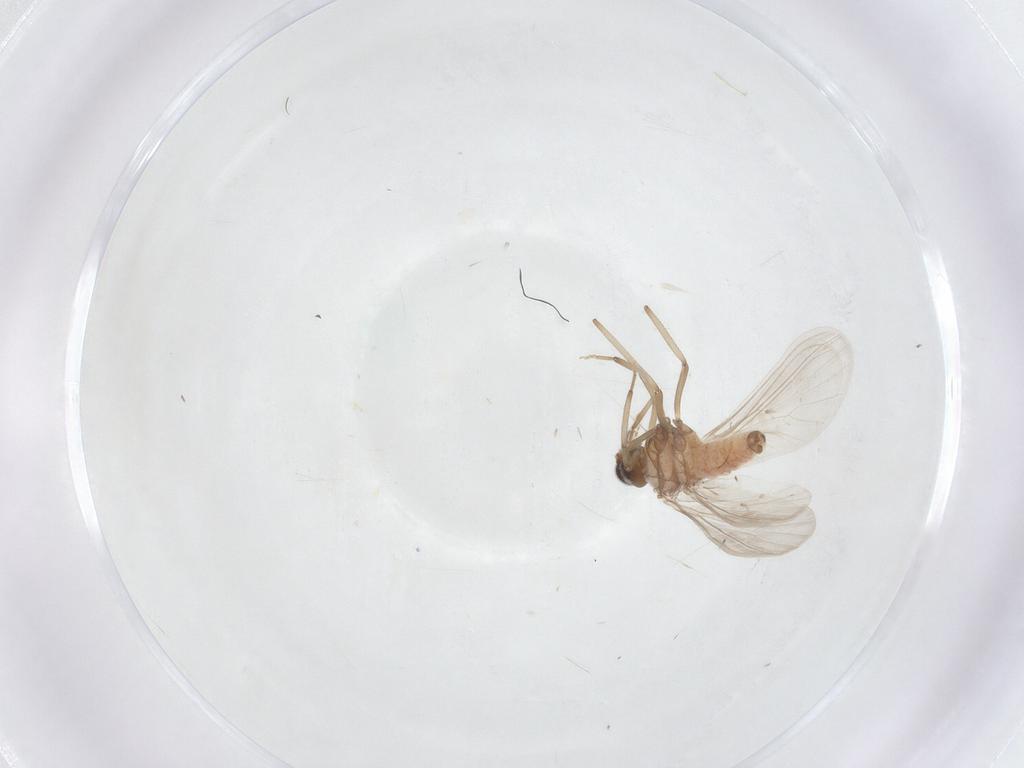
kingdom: Animalia
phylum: Arthropoda
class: Insecta
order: Neuroptera
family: Coniopterygidae
